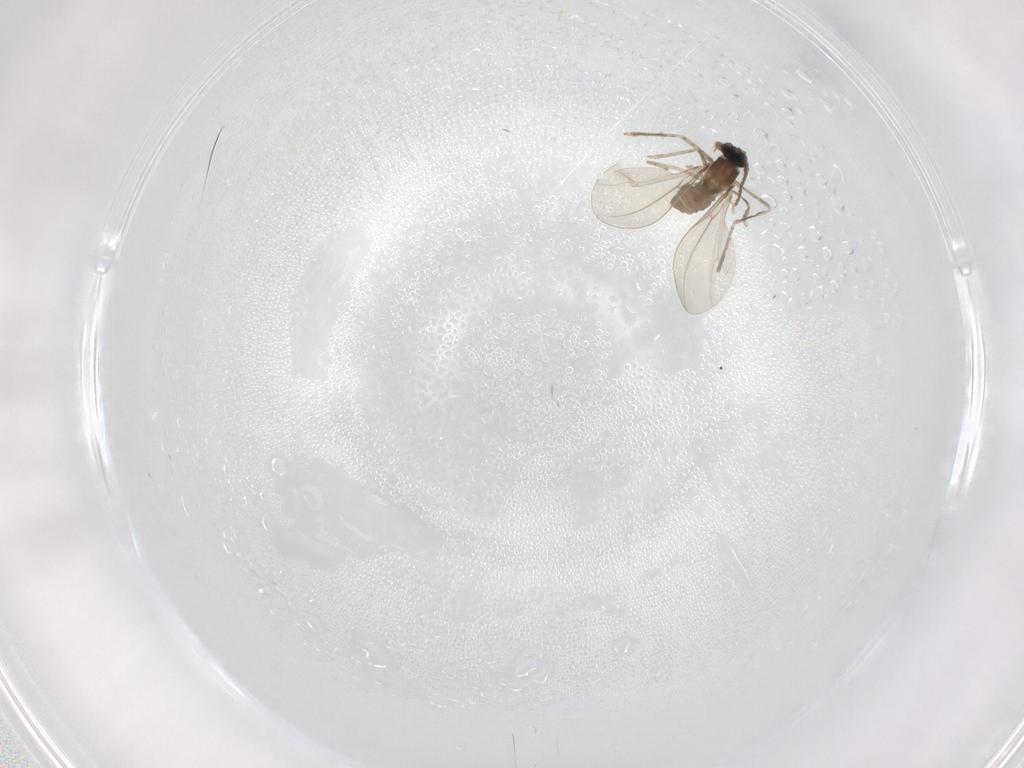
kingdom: Animalia
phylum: Arthropoda
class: Insecta
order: Diptera
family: Cecidomyiidae
